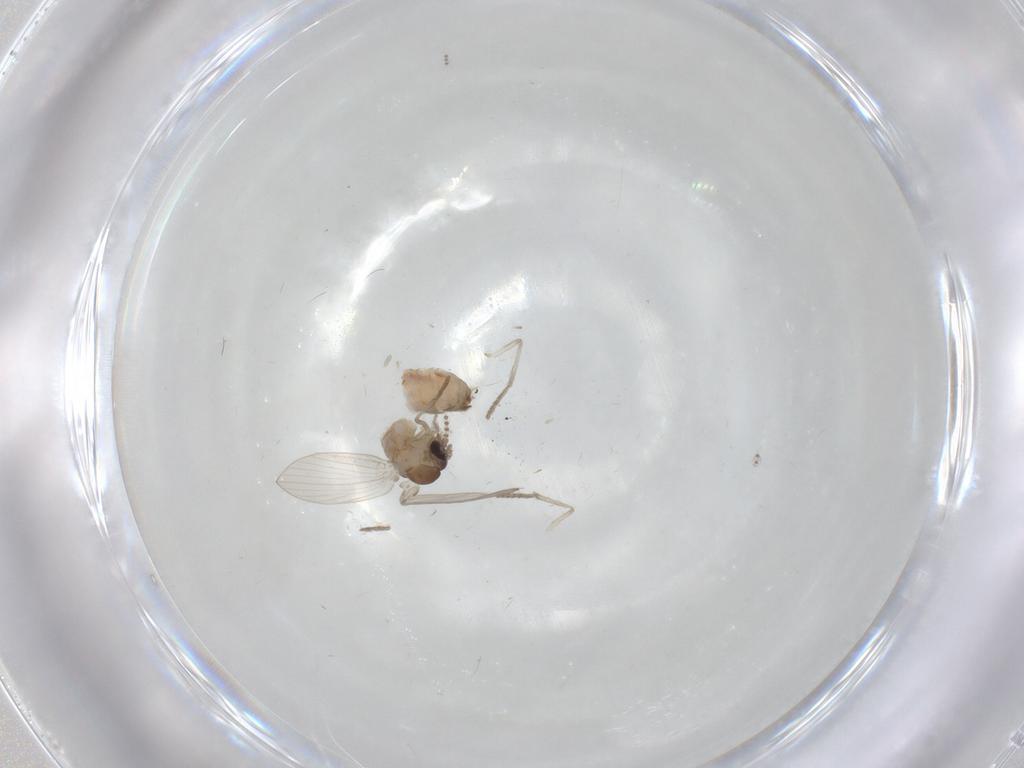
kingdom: Animalia
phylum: Arthropoda
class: Insecta
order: Diptera
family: Psychodidae
